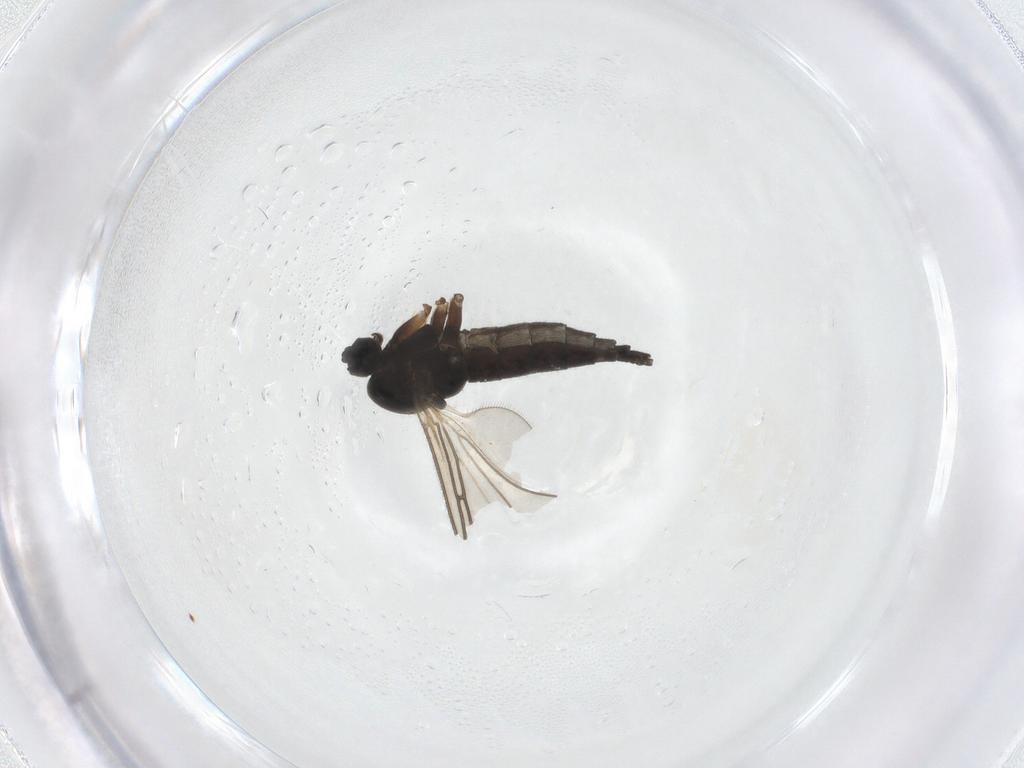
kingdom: Animalia
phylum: Arthropoda
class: Insecta
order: Diptera
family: Sciaridae
